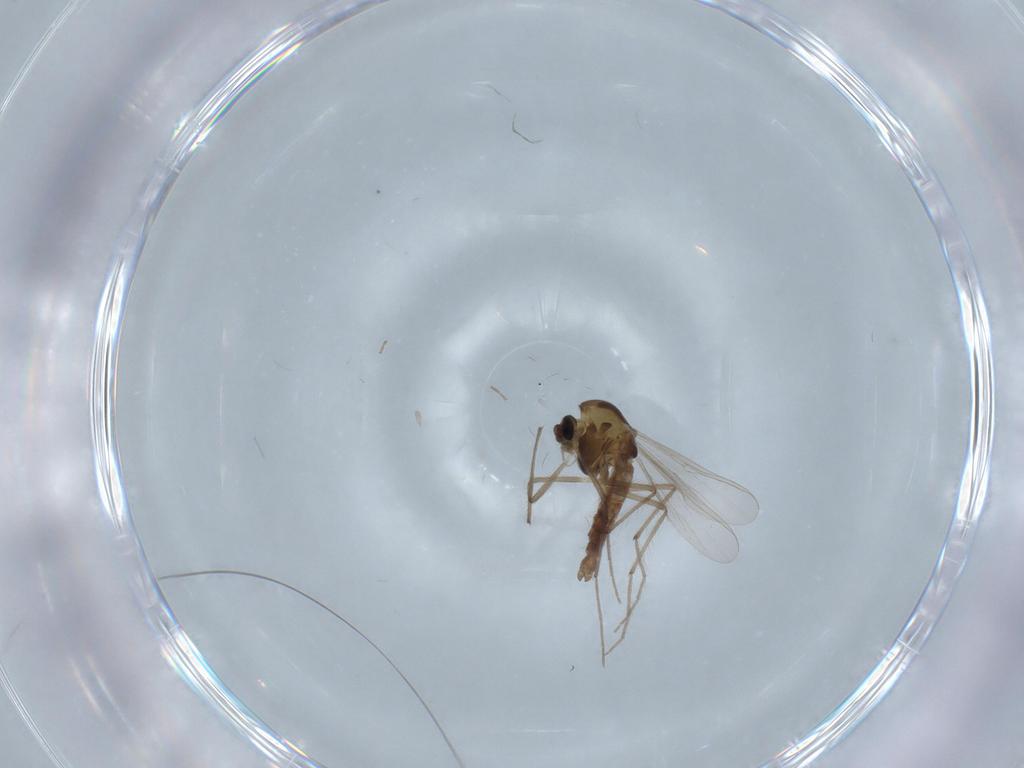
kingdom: Animalia
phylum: Arthropoda
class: Insecta
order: Diptera
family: Chironomidae
